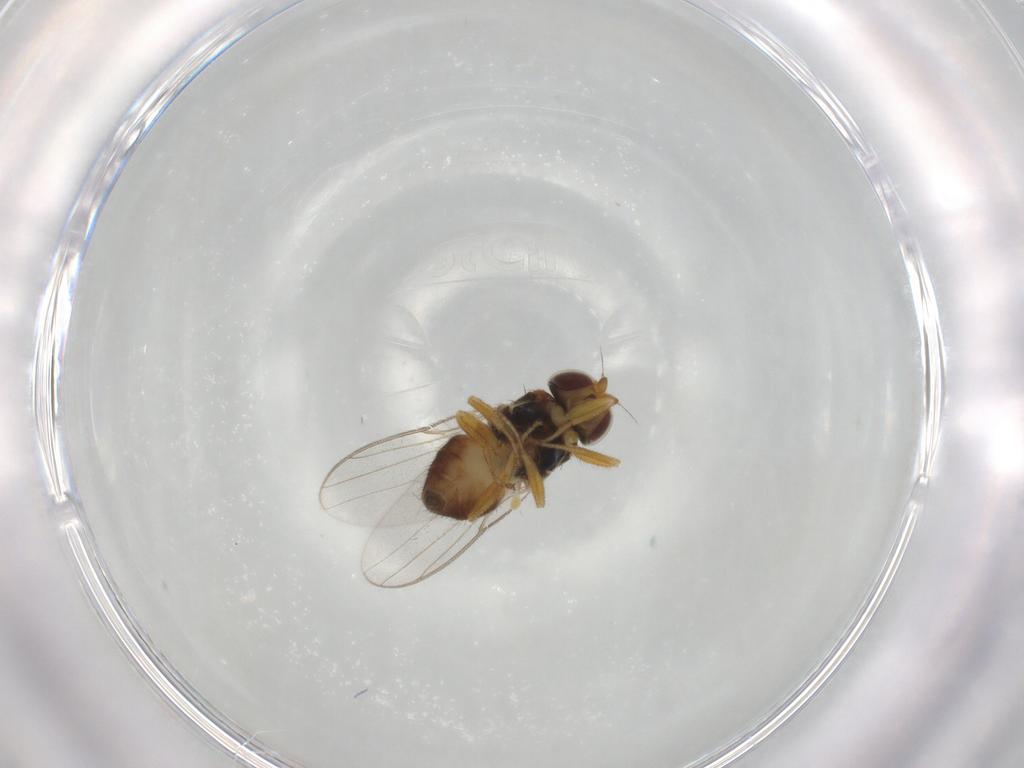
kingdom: Animalia
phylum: Arthropoda
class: Insecta
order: Diptera
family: Chloropidae
